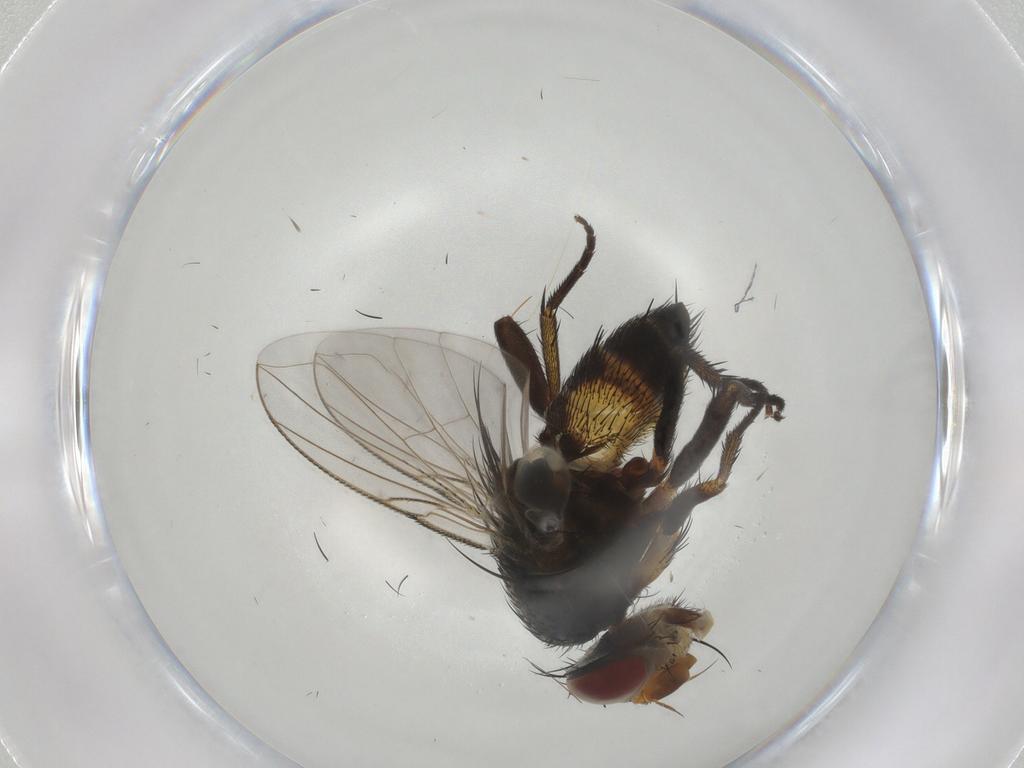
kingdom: Animalia
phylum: Arthropoda
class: Insecta
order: Diptera
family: Tachinidae
